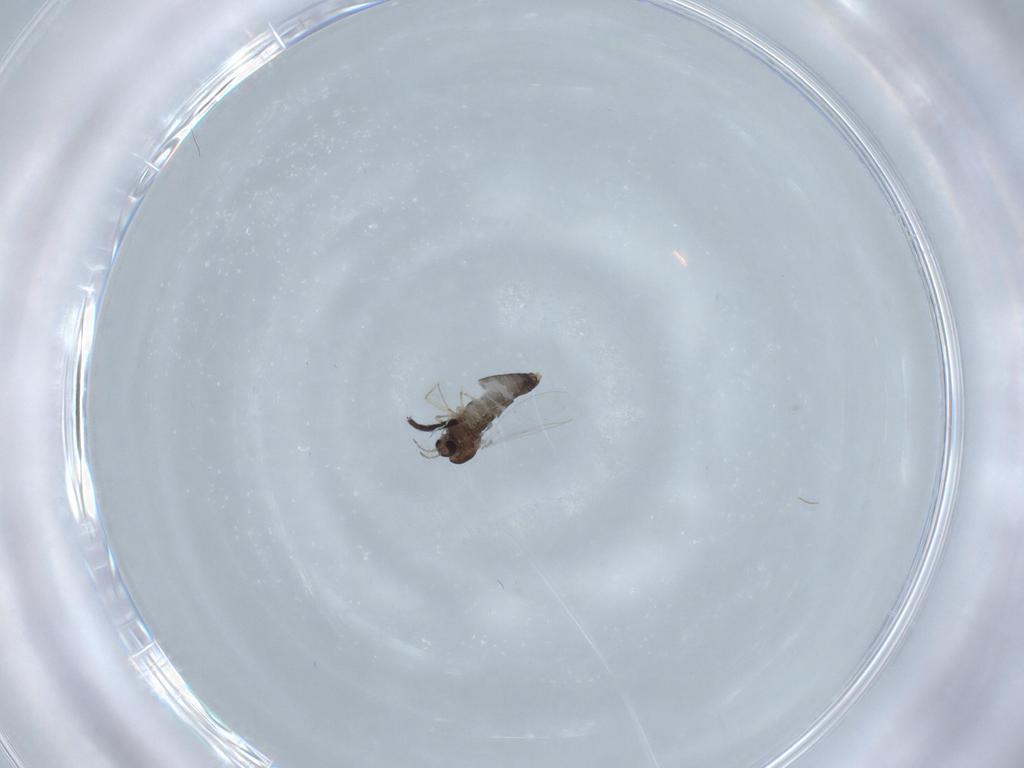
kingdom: Animalia
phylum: Arthropoda
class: Insecta
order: Diptera
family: Chironomidae
